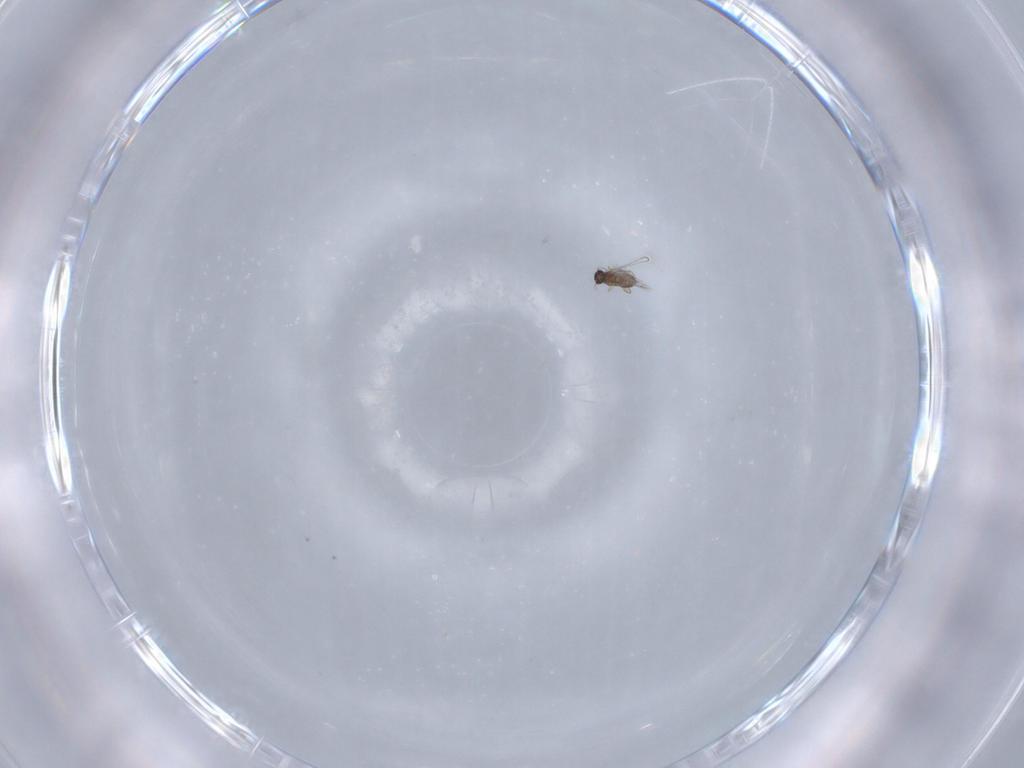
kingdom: Animalia
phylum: Arthropoda
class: Insecta
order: Hymenoptera
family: Mymaridae
